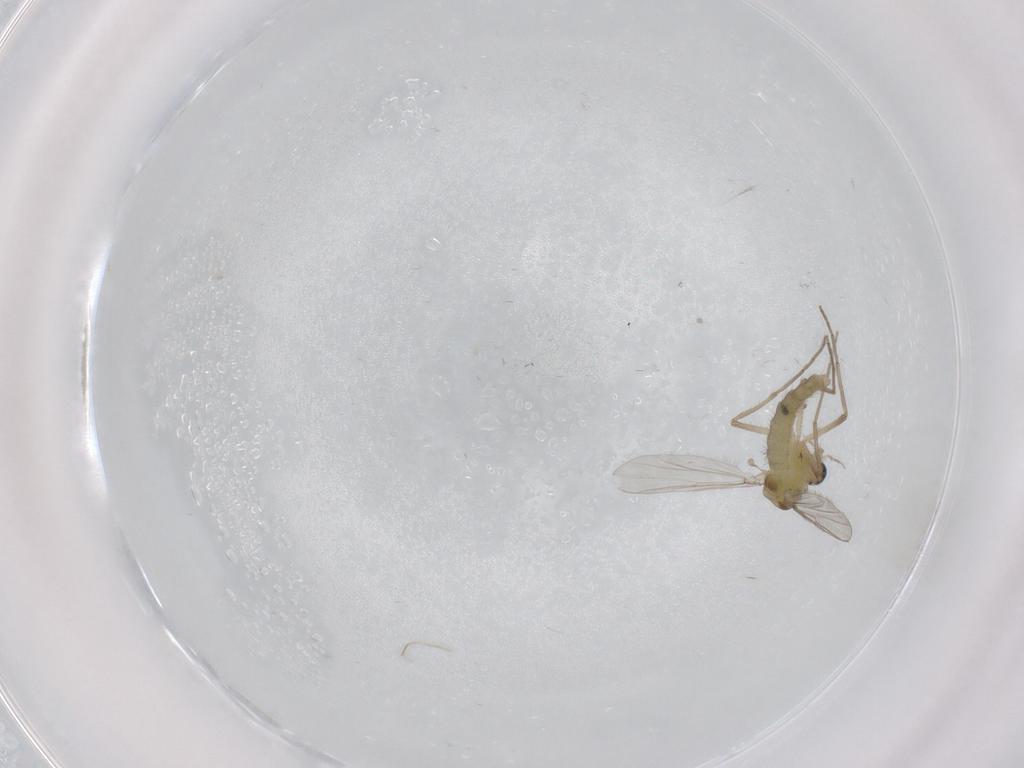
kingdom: Animalia
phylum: Arthropoda
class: Insecta
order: Diptera
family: Chironomidae
